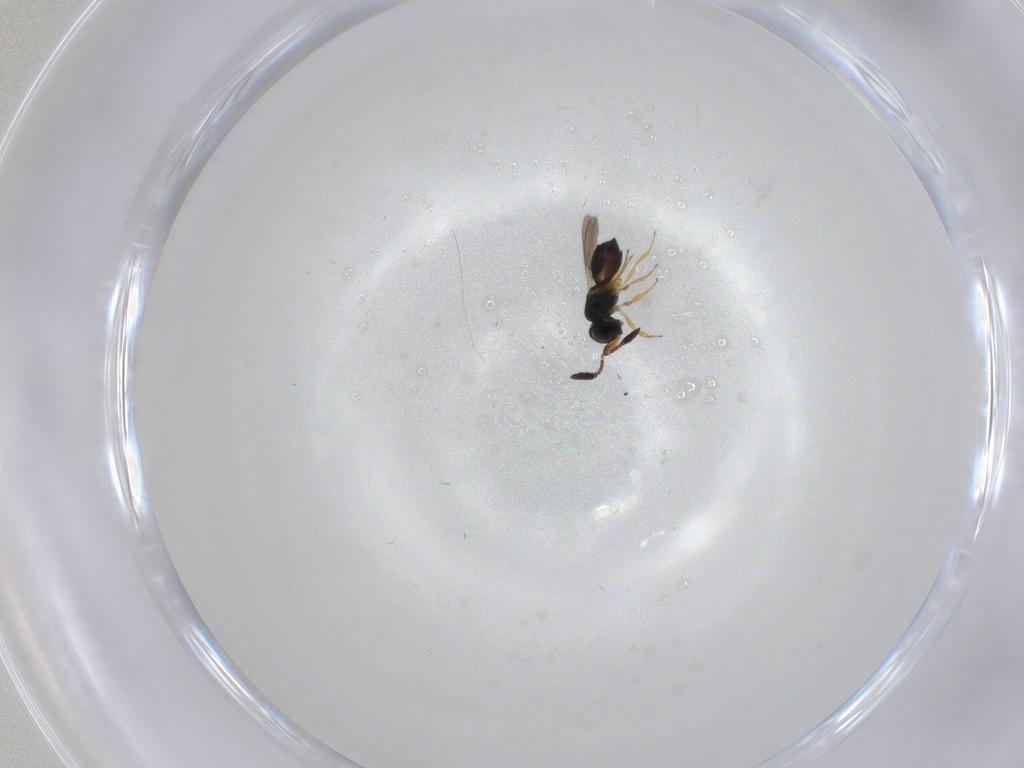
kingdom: Animalia
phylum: Arthropoda
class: Insecta
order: Hymenoptera
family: Scelionidae
